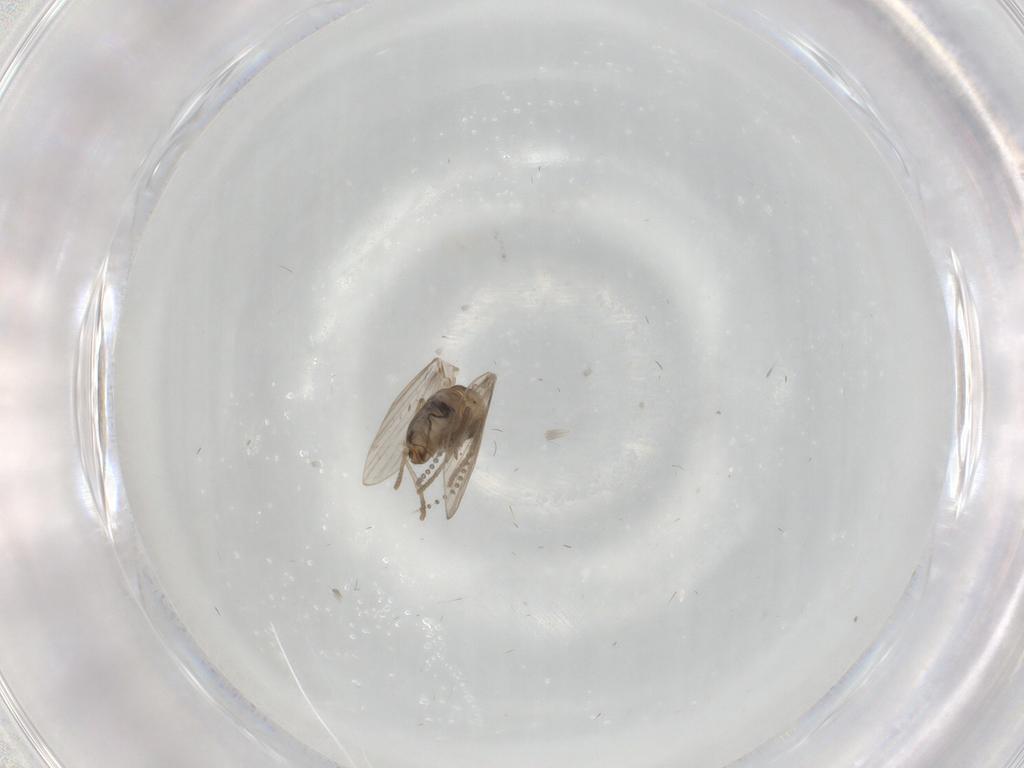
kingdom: Animalia
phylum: Arthropoda
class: Insecta
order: Diptera
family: Psychodidae
